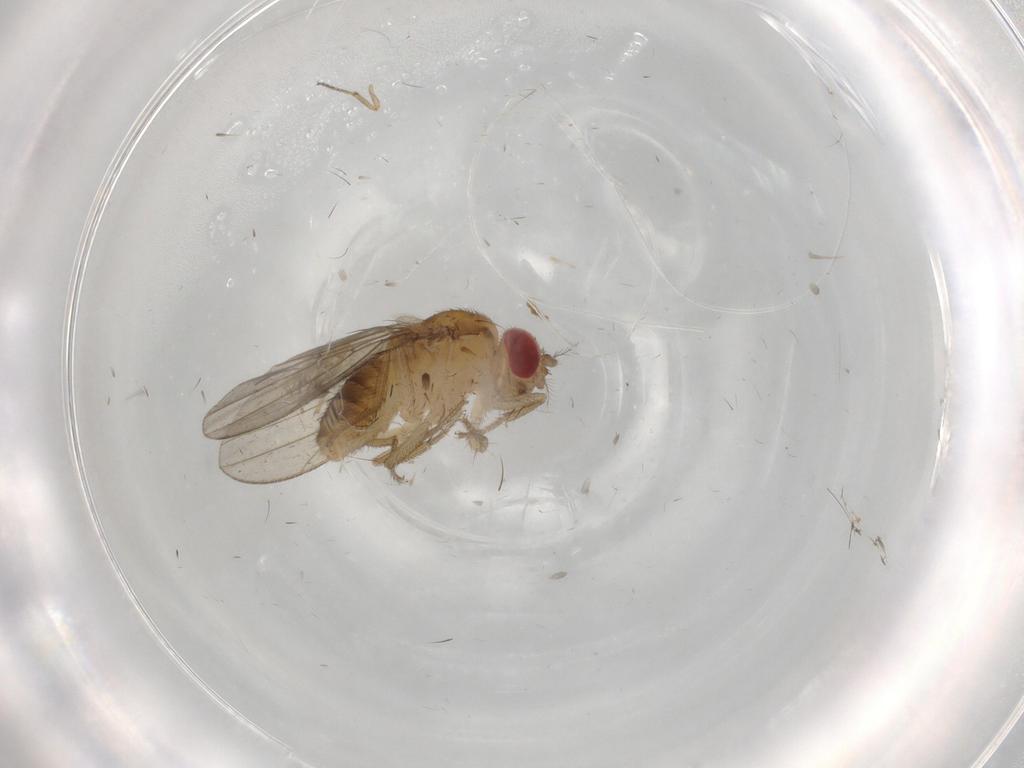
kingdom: Animalia
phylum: Arthropoda
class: Insecta
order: Diptera
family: Drosophilidae
